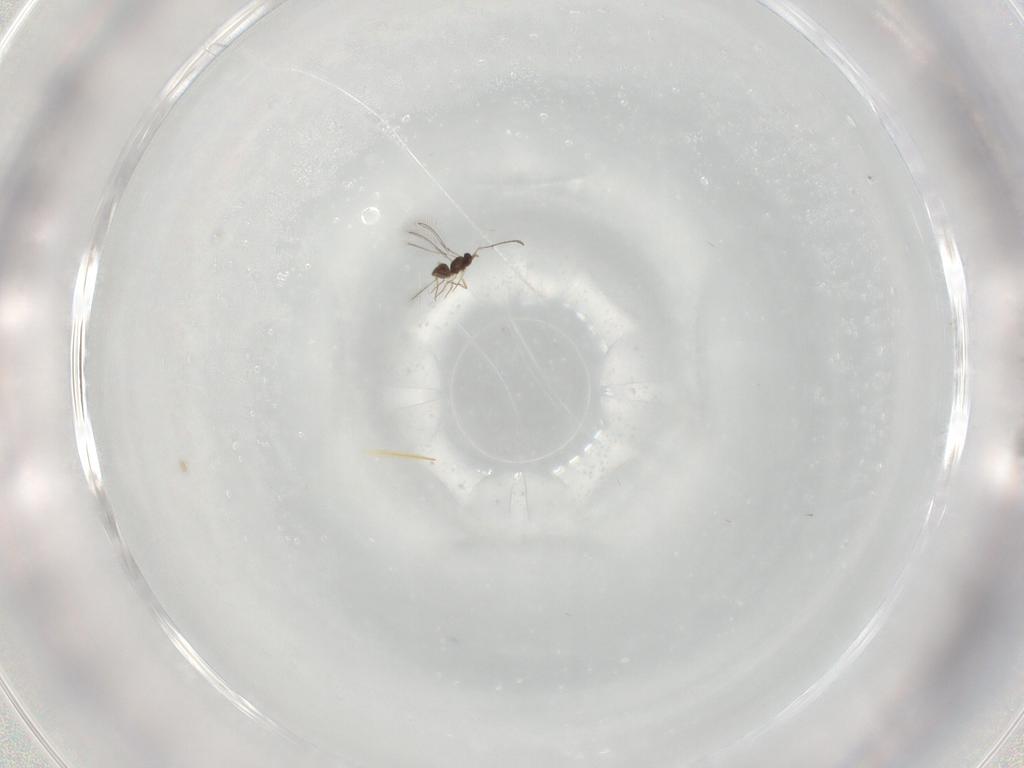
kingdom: Animalia
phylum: Arthropoda
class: Insecta
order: Hymenoptera
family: Mymaridae
